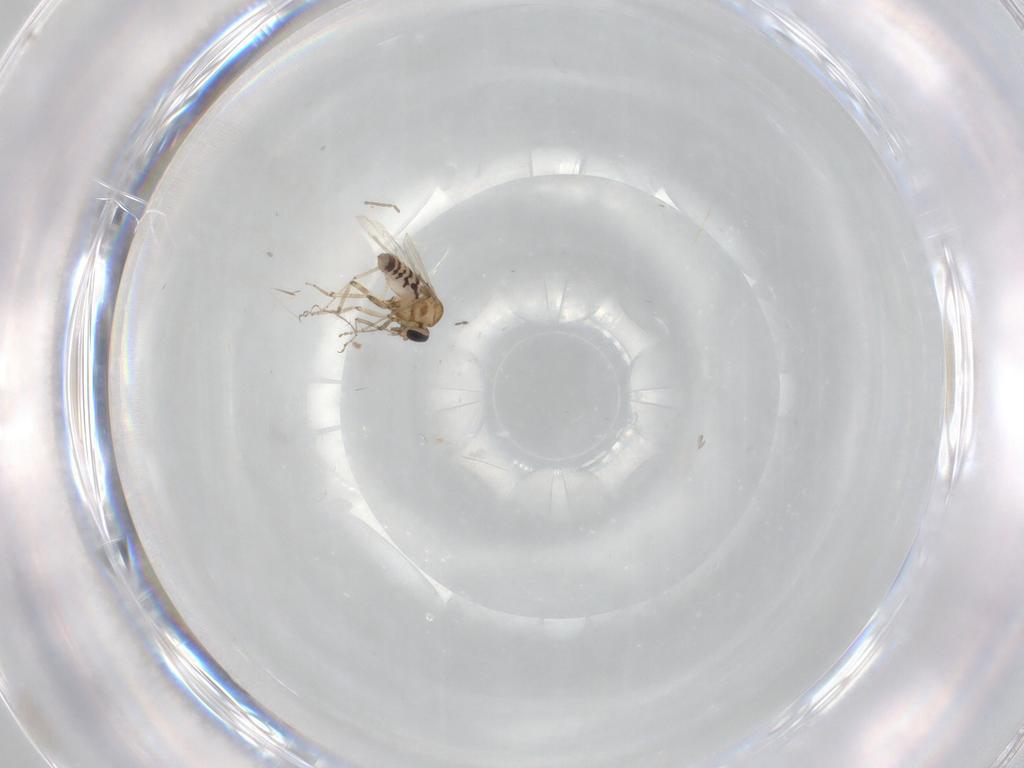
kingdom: Animalia
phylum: Arthropoda
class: Insecta
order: Diptera
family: Ceratopogonidae
